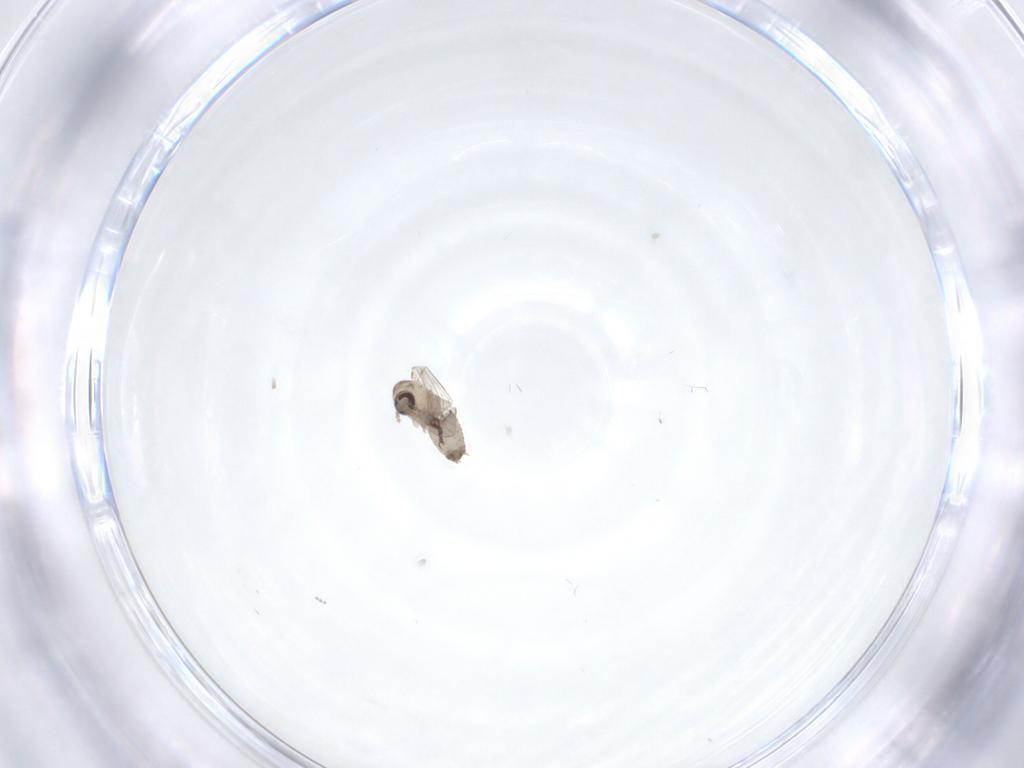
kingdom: Animalia
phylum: Arthropoda
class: Insecta
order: Diptera
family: Psychodidae
